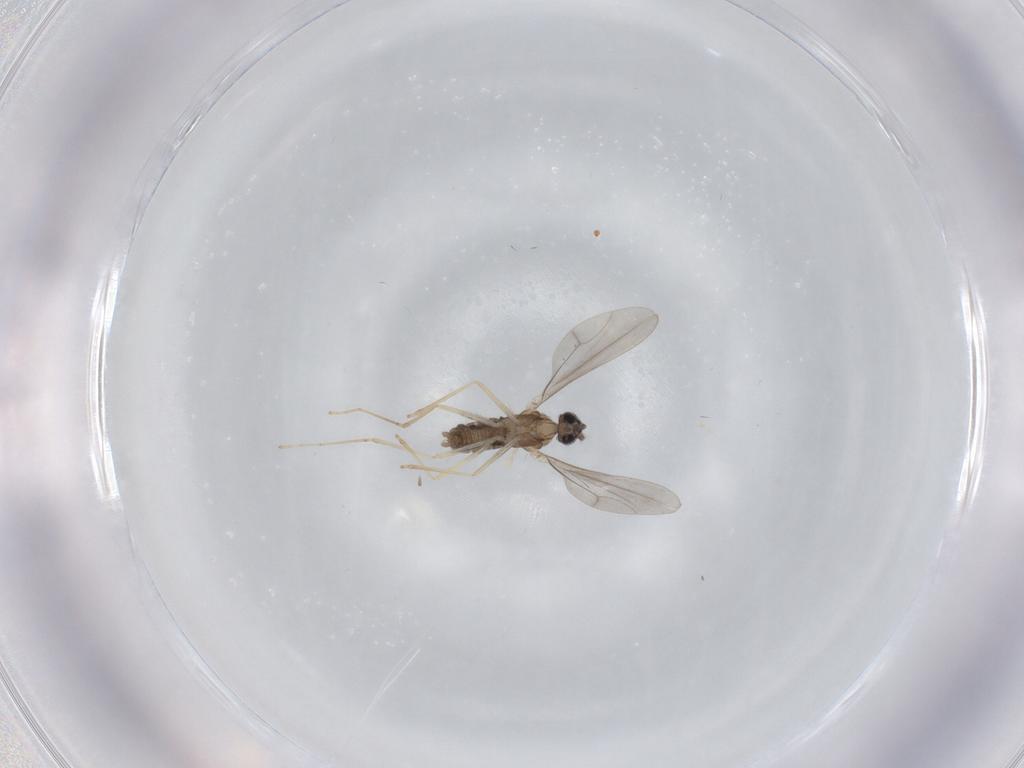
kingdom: Animalia
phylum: Arthropoda
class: Insecta
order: Diptera
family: Cecidomyiidae
